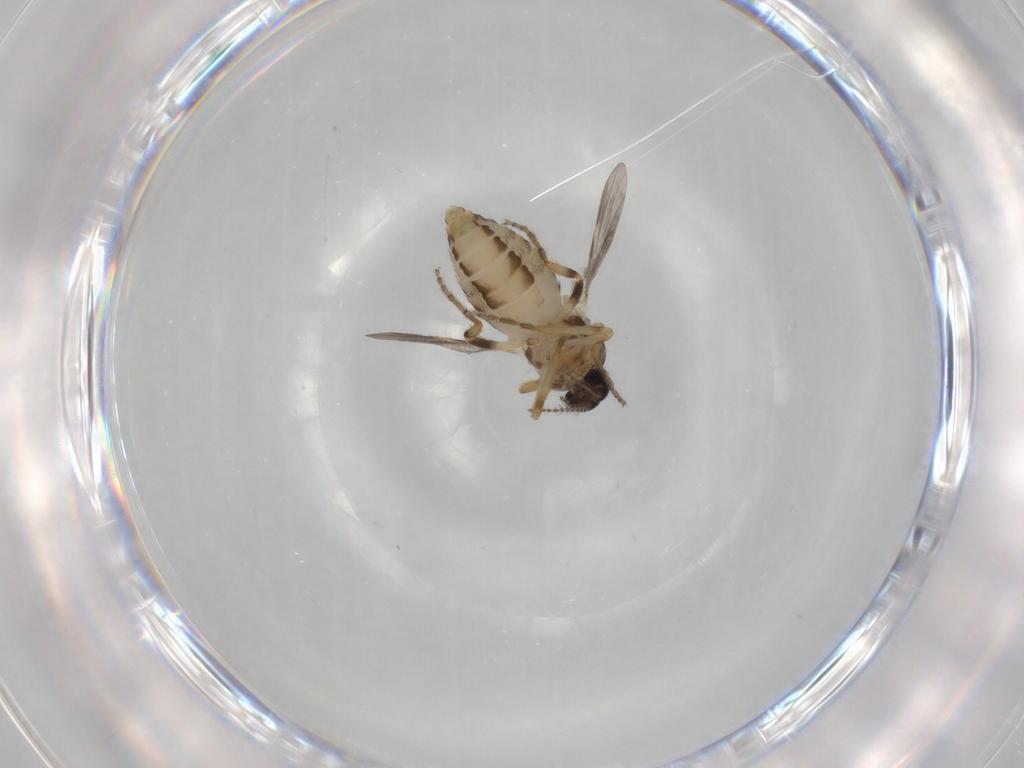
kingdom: Animalia
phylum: Arthropoda
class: Insecta
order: Diptera
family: Ceratopogonidae
